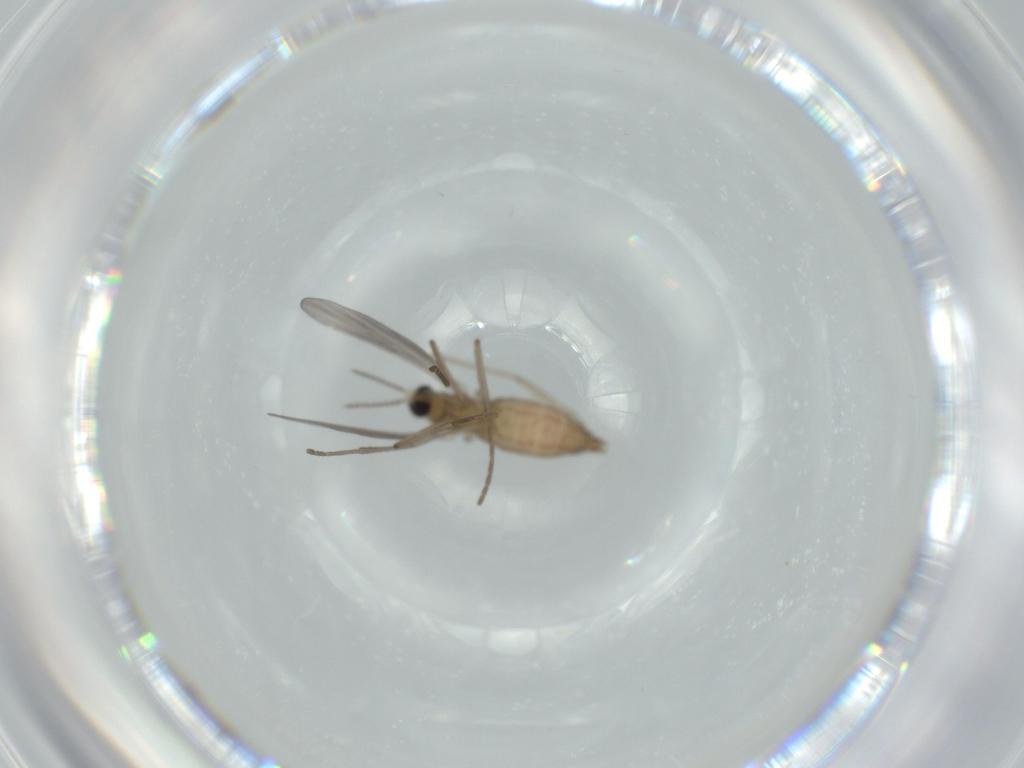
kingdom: Animalia
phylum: Arthropoda
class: Insecta
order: Diptera
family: Cecidomyiidae
